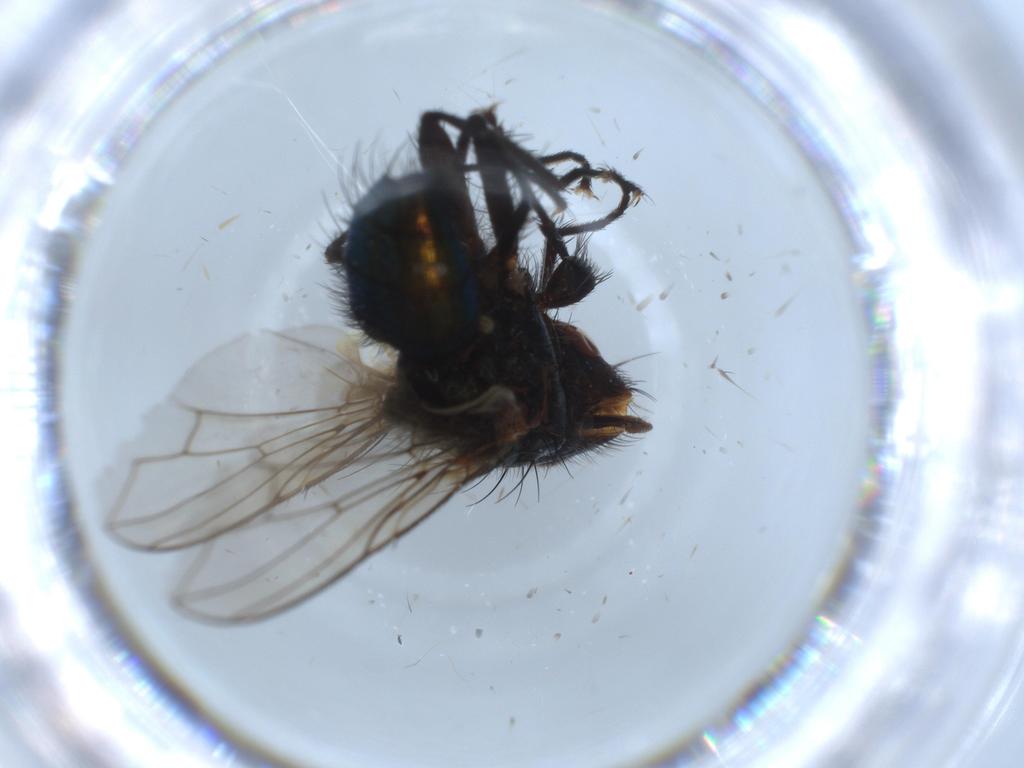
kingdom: Animalia
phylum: Arthropoda
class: Insecta
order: Diptera
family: Calliphoridae
